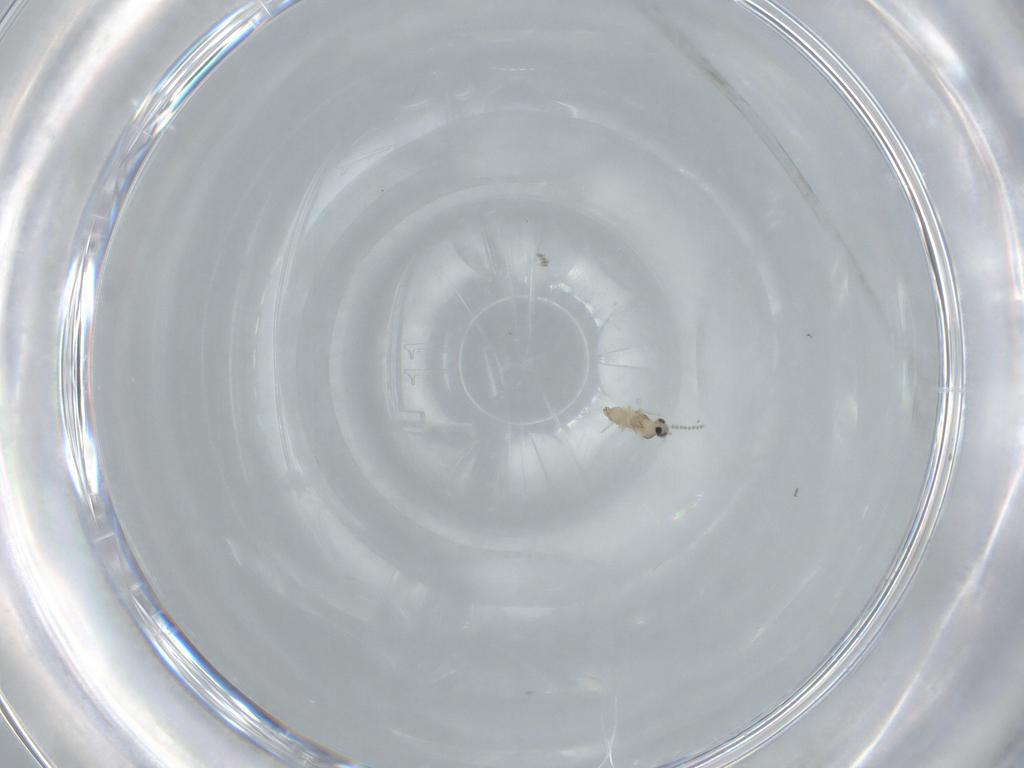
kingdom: Animalia
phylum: Arthropoda
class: Insecta
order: Diptera
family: Cecidomyiidae
